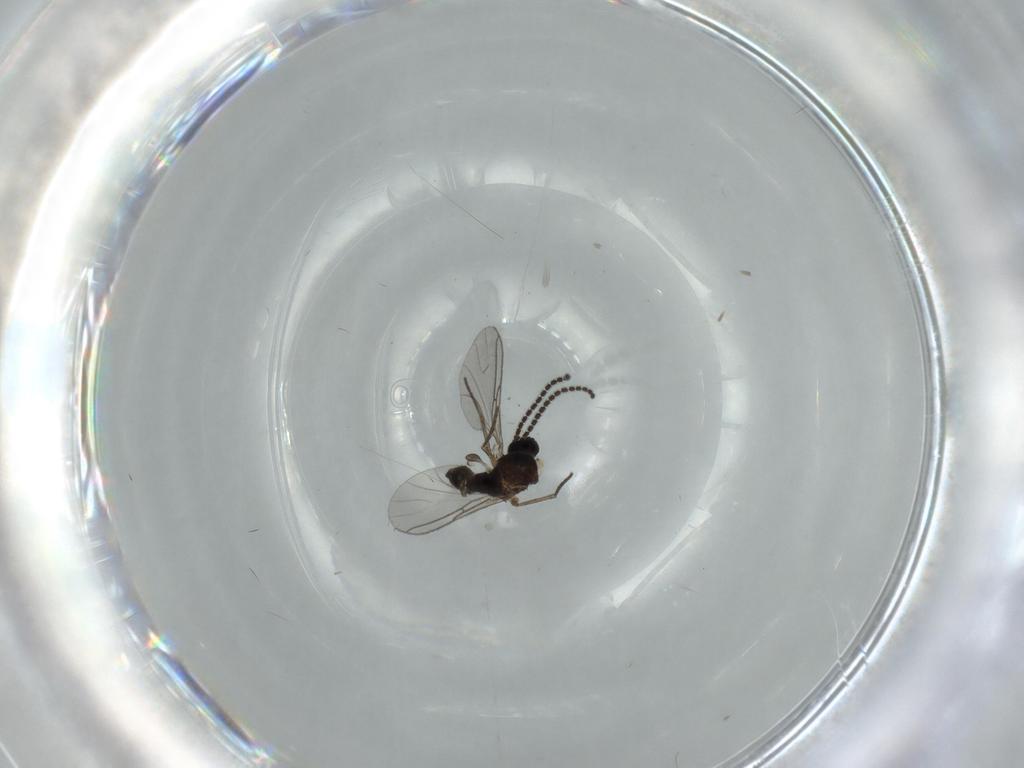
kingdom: Animalia
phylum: Arthropoda
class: Insecta
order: Diptera
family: Sciaridae
